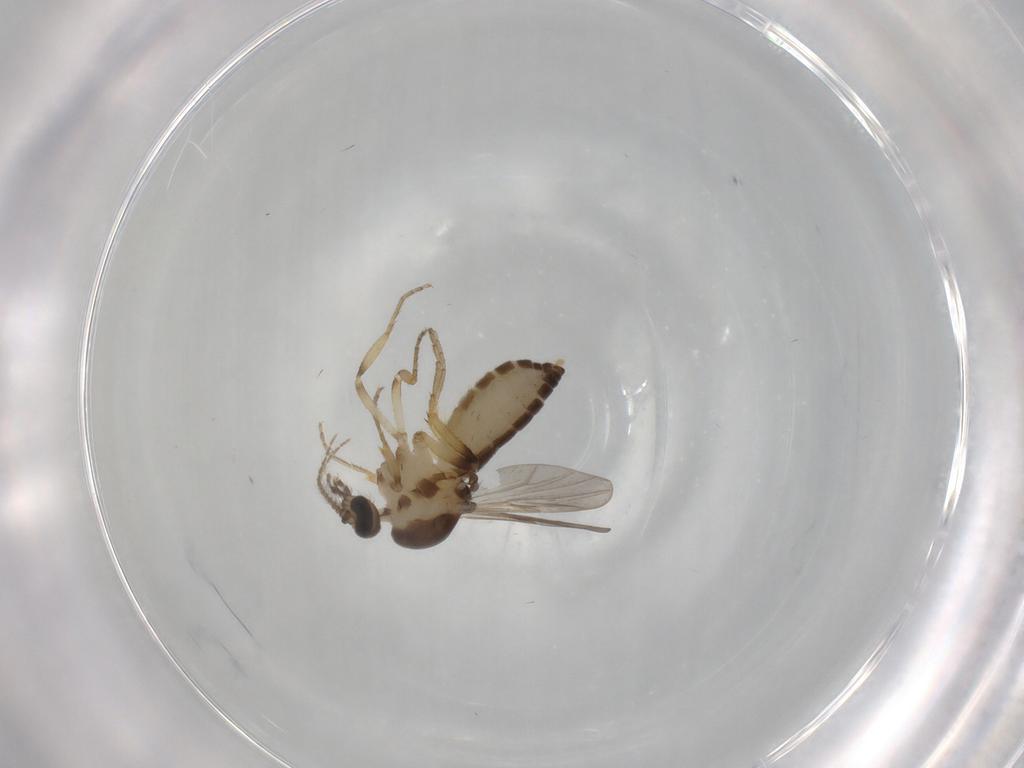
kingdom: Animalia
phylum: Arthropoda
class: Insecta
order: Diptera
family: Ceratopogonidae
